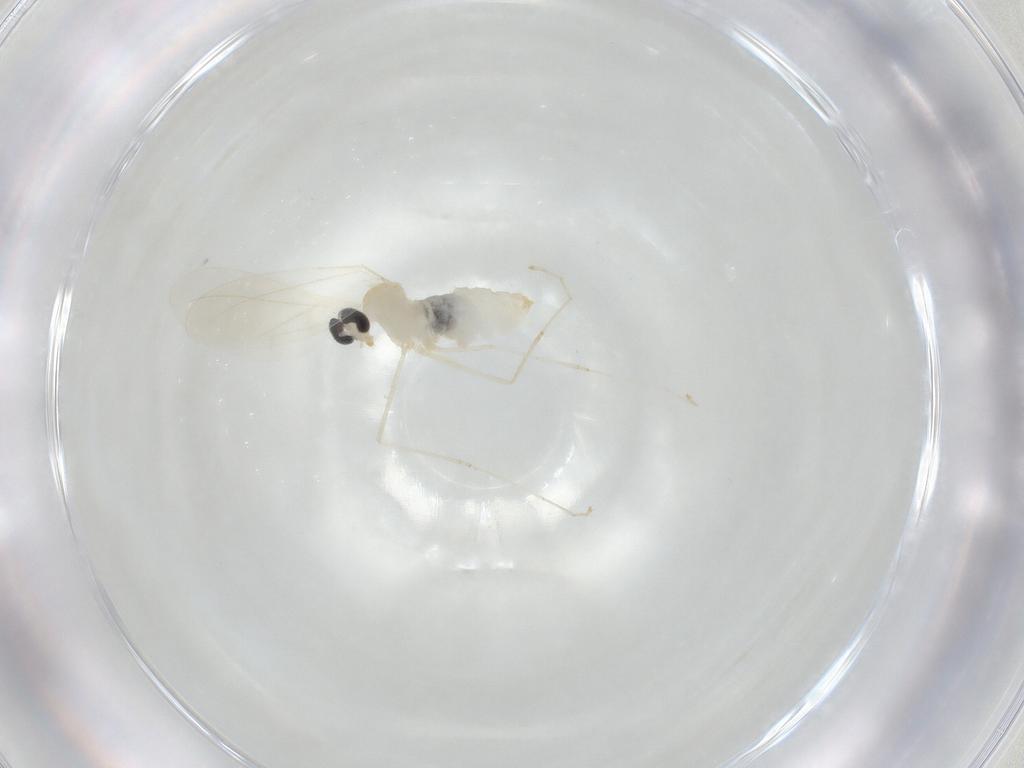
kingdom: Animalia
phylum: Arthropoda
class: Insecta
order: Diptera
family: Cecidomyiidae
